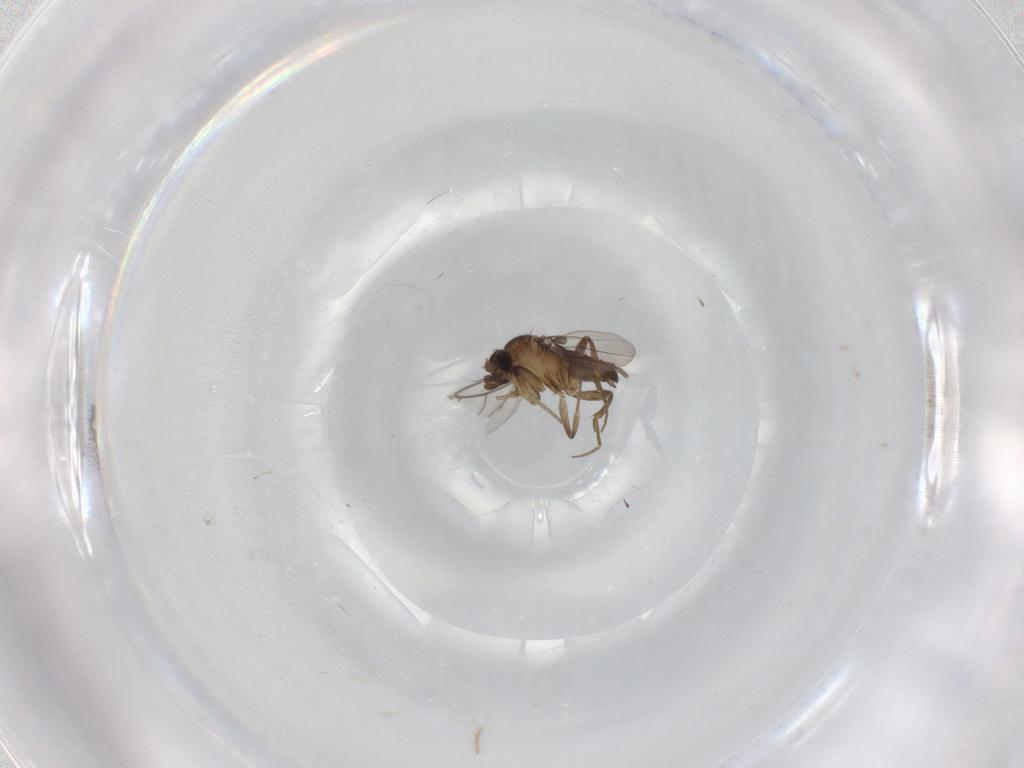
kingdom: Animalia
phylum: Arthropoda
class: Insecta
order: Diptera
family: Phoridae
